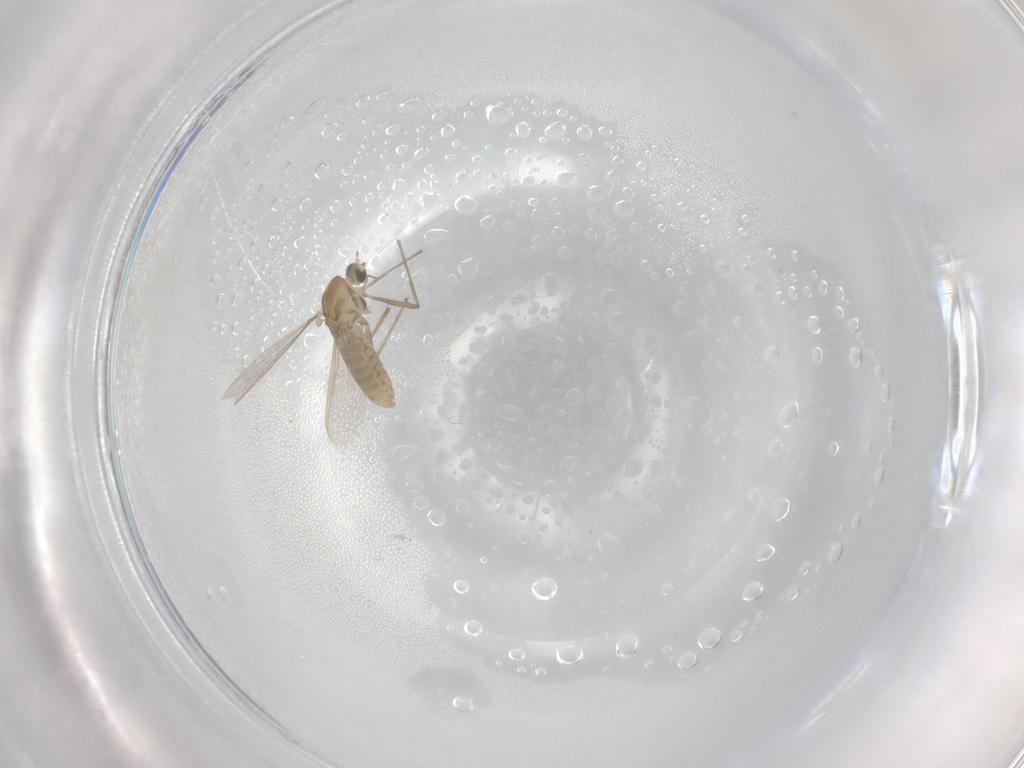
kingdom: Animalia
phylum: Arthropoda
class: Insecta
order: Diptera
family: Chironomidae
